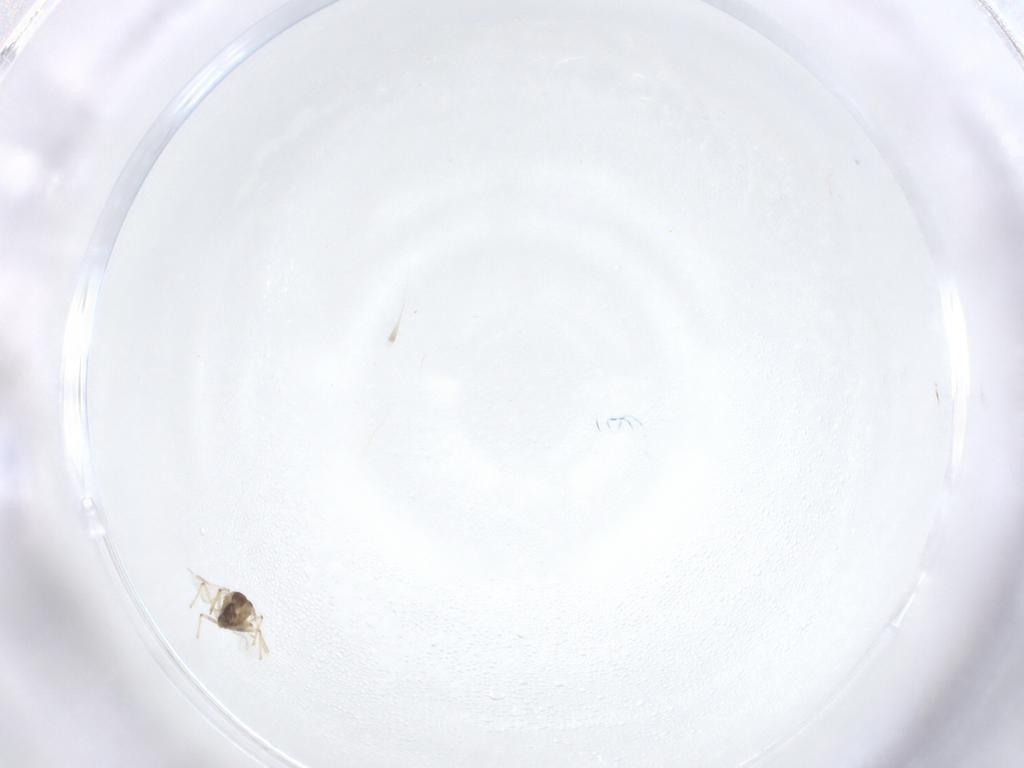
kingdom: Animalia
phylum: Arthropoda
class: Insecta
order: Diptera
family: Chironomidae
